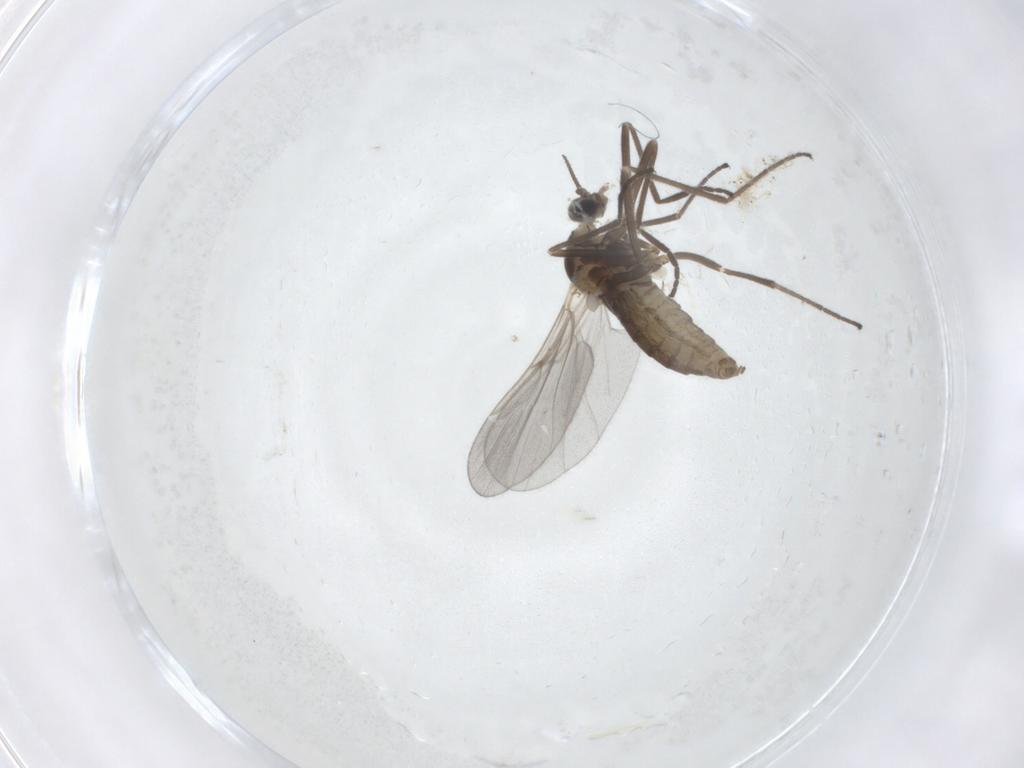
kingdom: Animalia
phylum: Arthropoda
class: Insecta
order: Diptera
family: Cecidomyiidae
